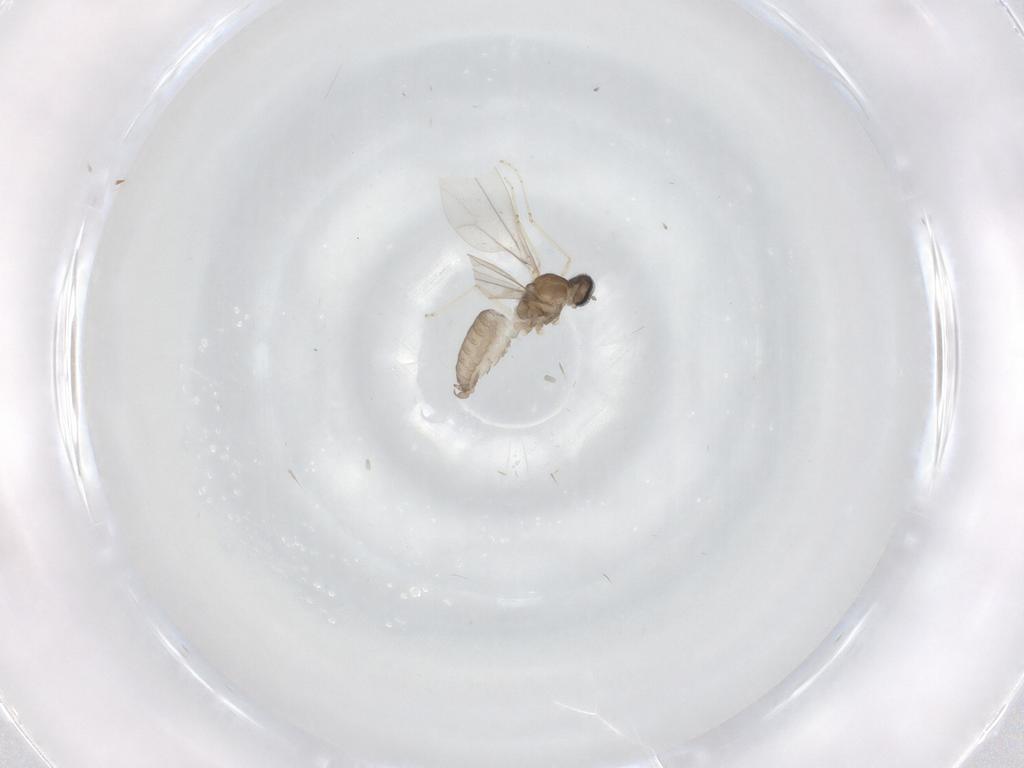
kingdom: Animalia
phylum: Arthropoda
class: Insecta
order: Diptera
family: Cecidomyiidae
